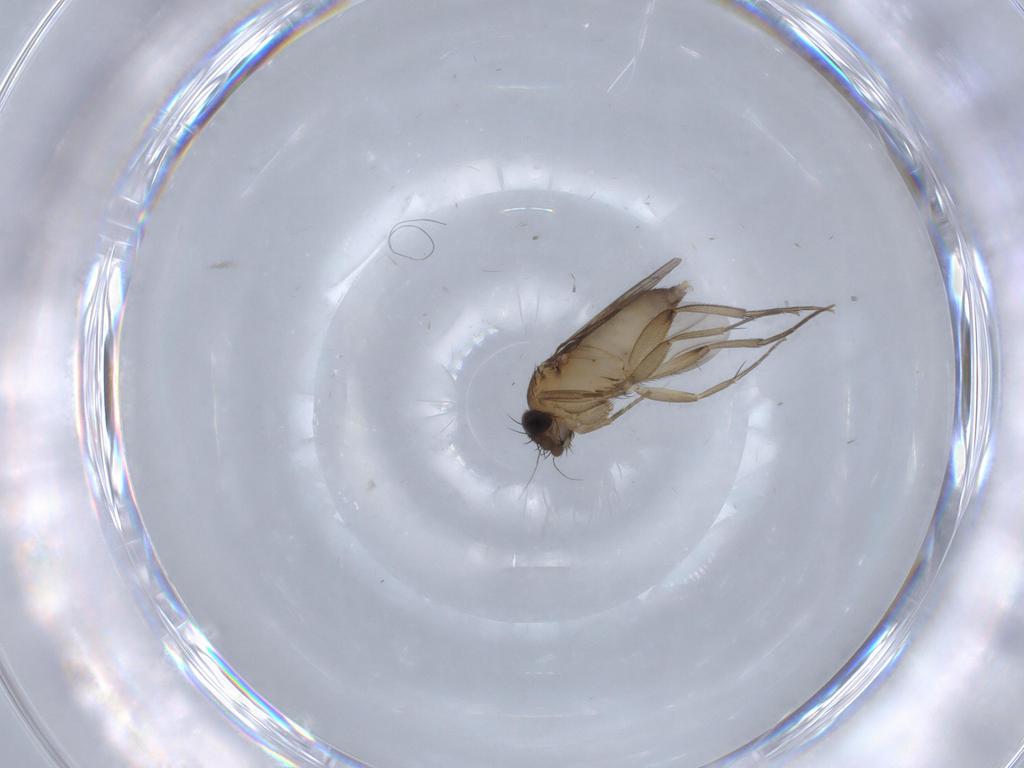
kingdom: Animalia
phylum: Arthropoda
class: Insecta
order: Diptera
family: Phoridae
